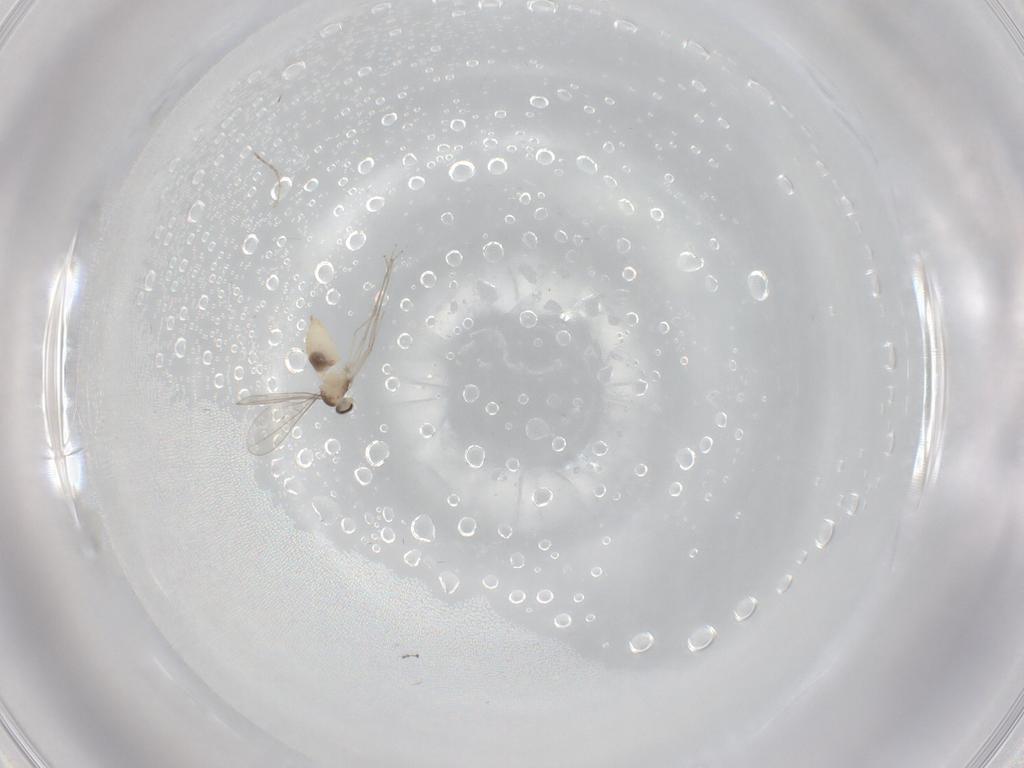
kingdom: Animalia
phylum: Arthropoda
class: Insecta
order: Diptera
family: Cecidomyiidae
